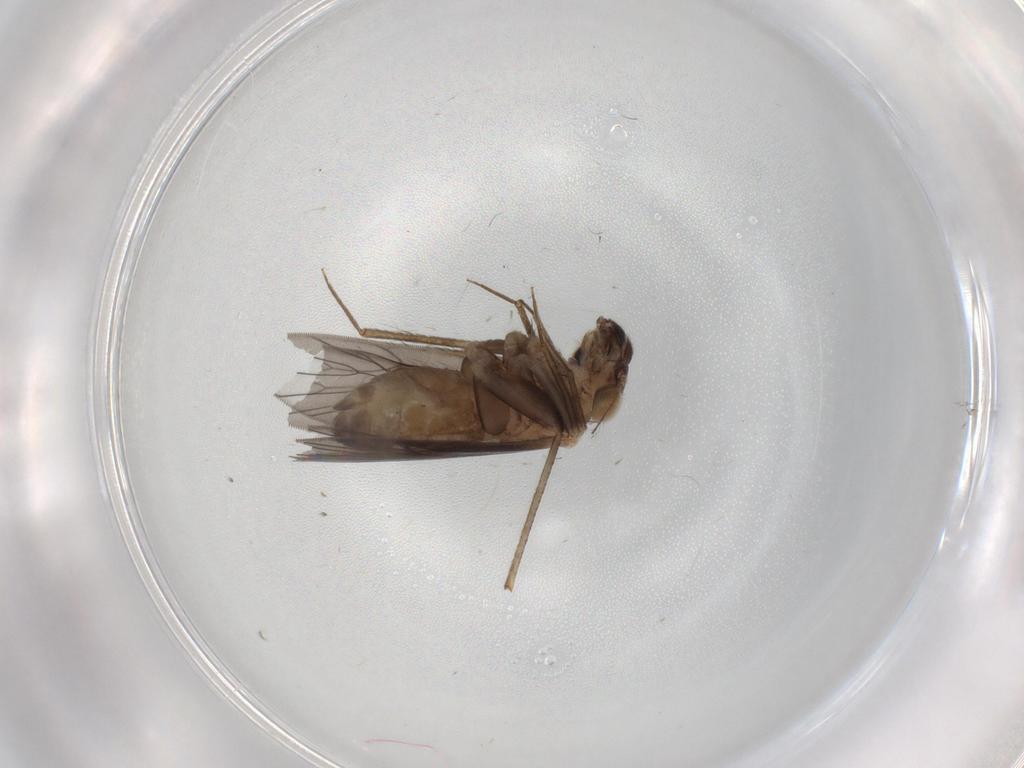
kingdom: Animalia
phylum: Arthropoda
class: Insecta
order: Psocodea
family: Lepidopsocidae
